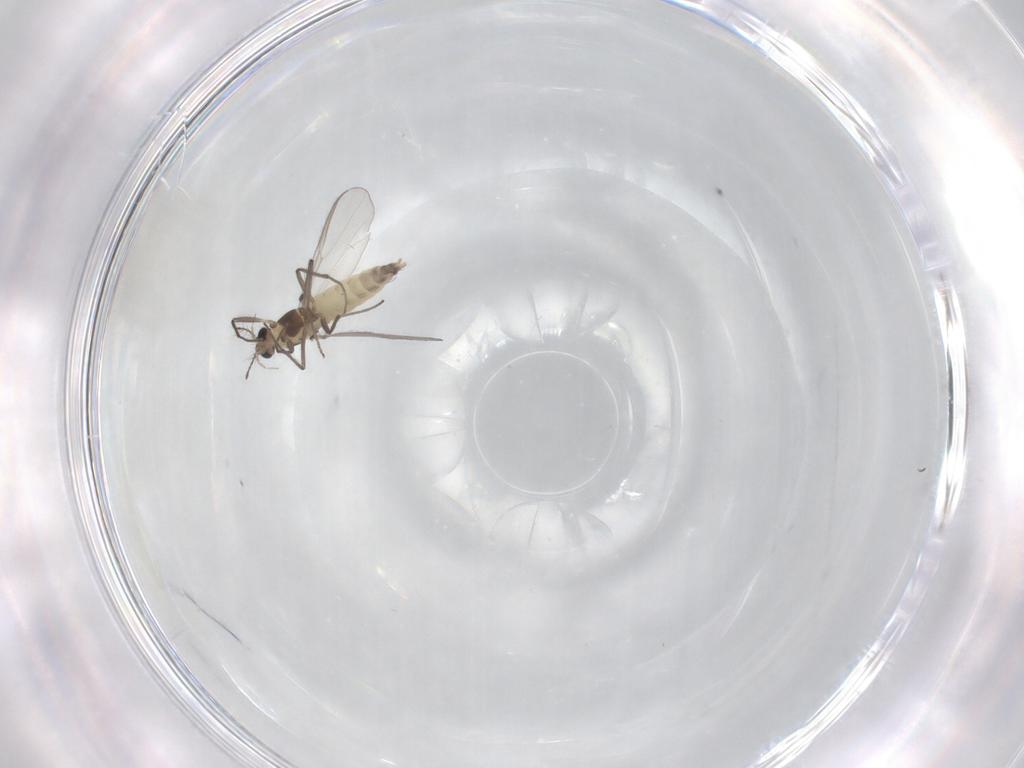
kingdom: Animalia
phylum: Arthropoda
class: Insecta
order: Diptera
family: Chironomidae
